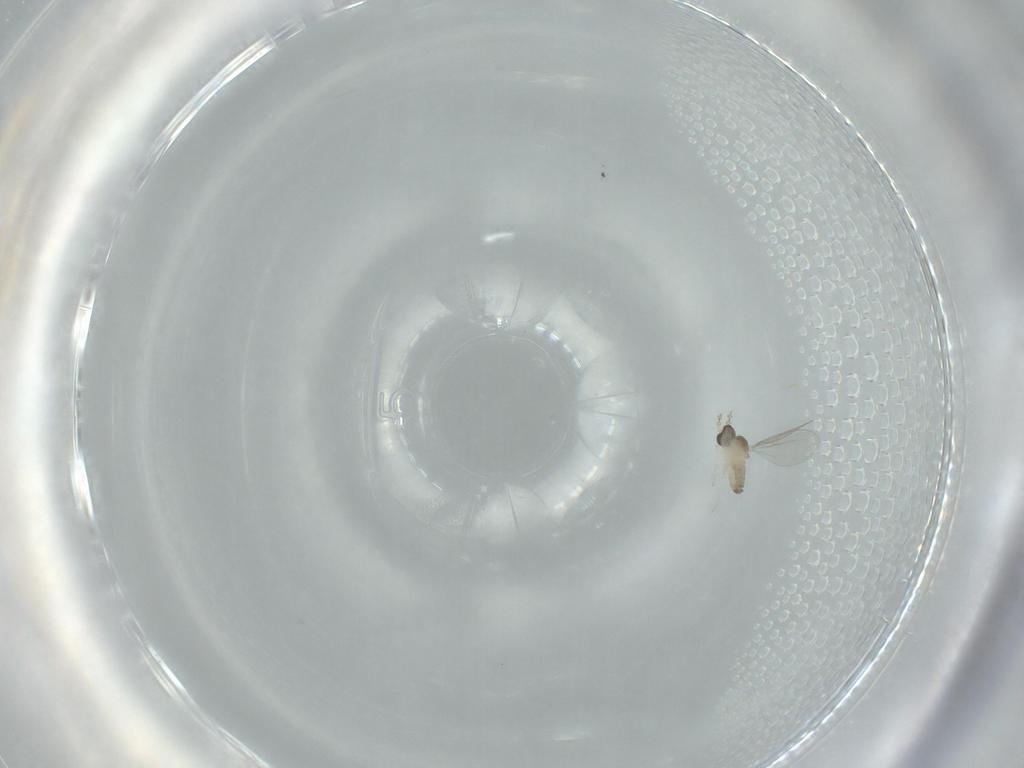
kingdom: Animalia
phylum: Arthropoda
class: Insecta
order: Diptera
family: Cecidomyiidae
